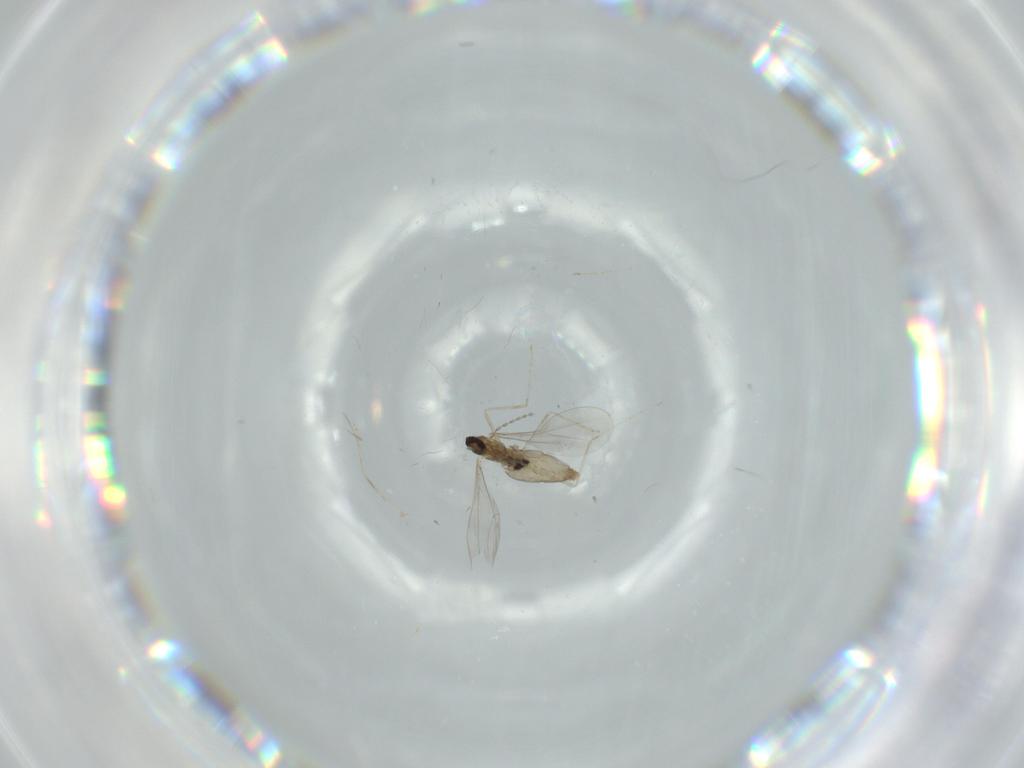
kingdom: Animalia
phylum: Arthropoda
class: Insecta
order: Diptera
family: Cecidomyiidae
